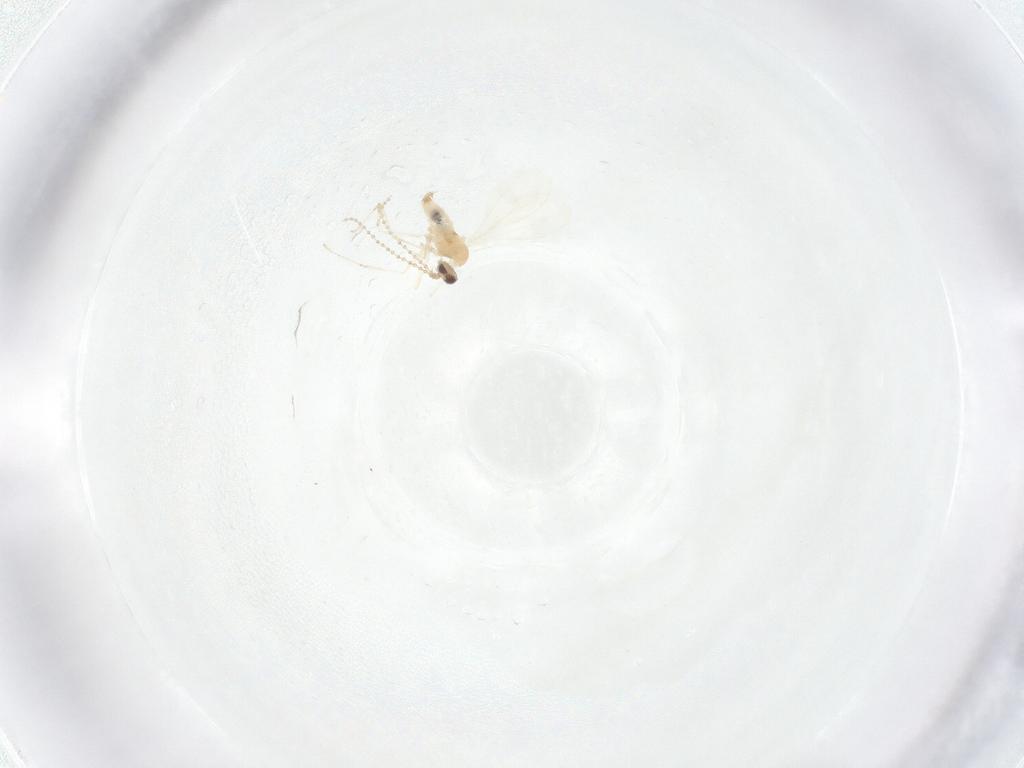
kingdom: Animalia
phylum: Arthropoda
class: Insecta
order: Diptera
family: Cecidomyiidae
